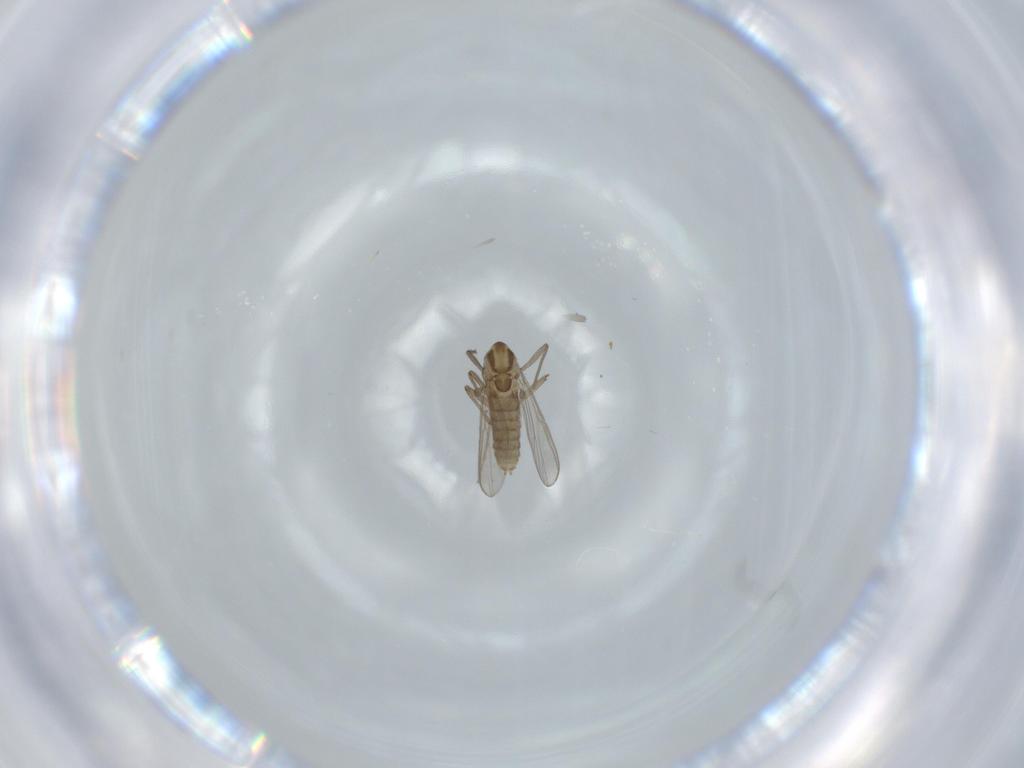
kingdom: Animalia
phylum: Arthropoda
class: Insecta
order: Diptera
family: Chironomidae
